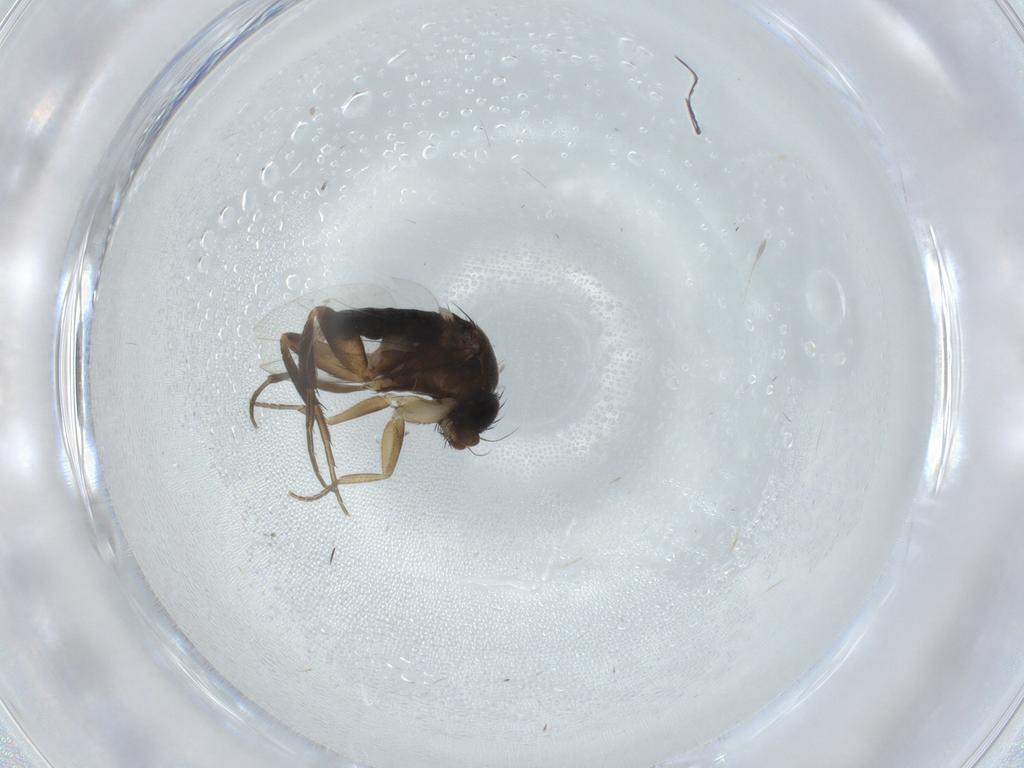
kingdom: Animalia
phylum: Arthropoda
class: Insecta
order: Diptera
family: Phoridae
